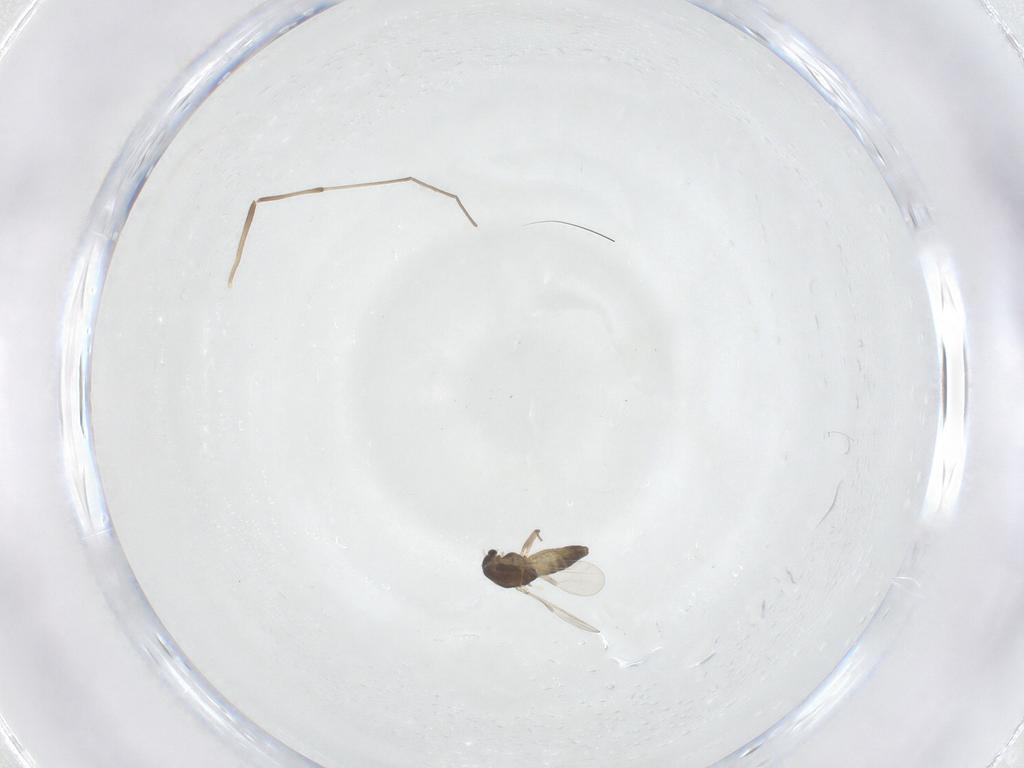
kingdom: Animalia
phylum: Arthropoda
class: Insecta
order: Diptera
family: Chironomidae
